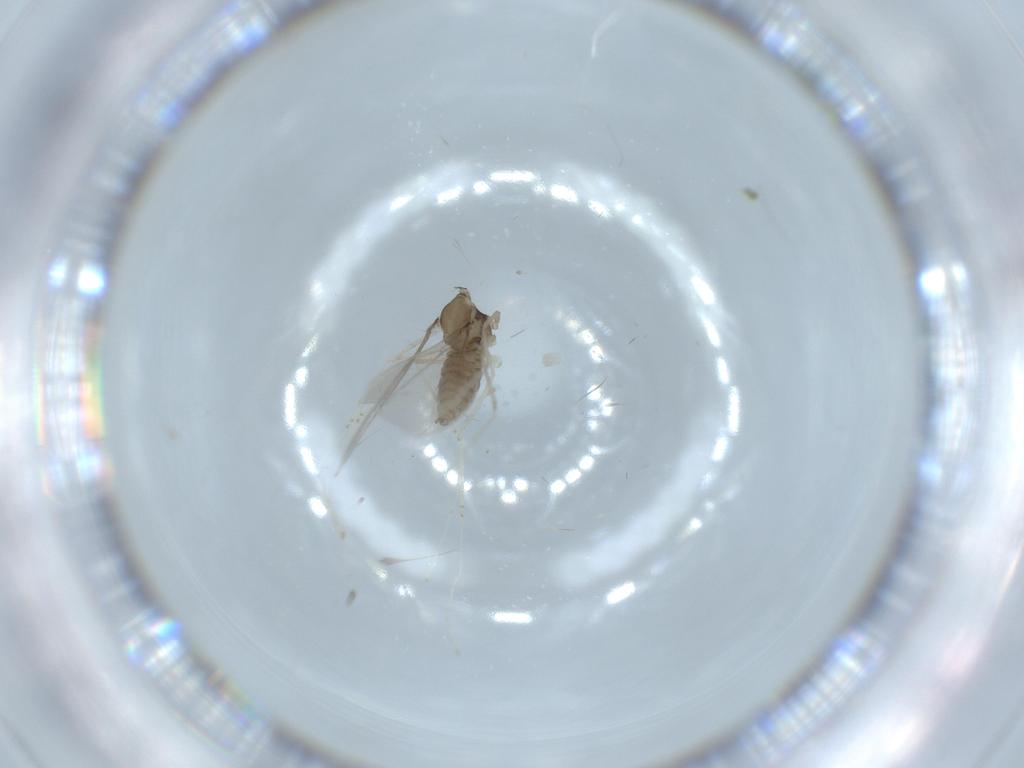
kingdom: Animalia
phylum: Arthropoda
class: Insecta
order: Diptera
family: Cecidomyiidae
